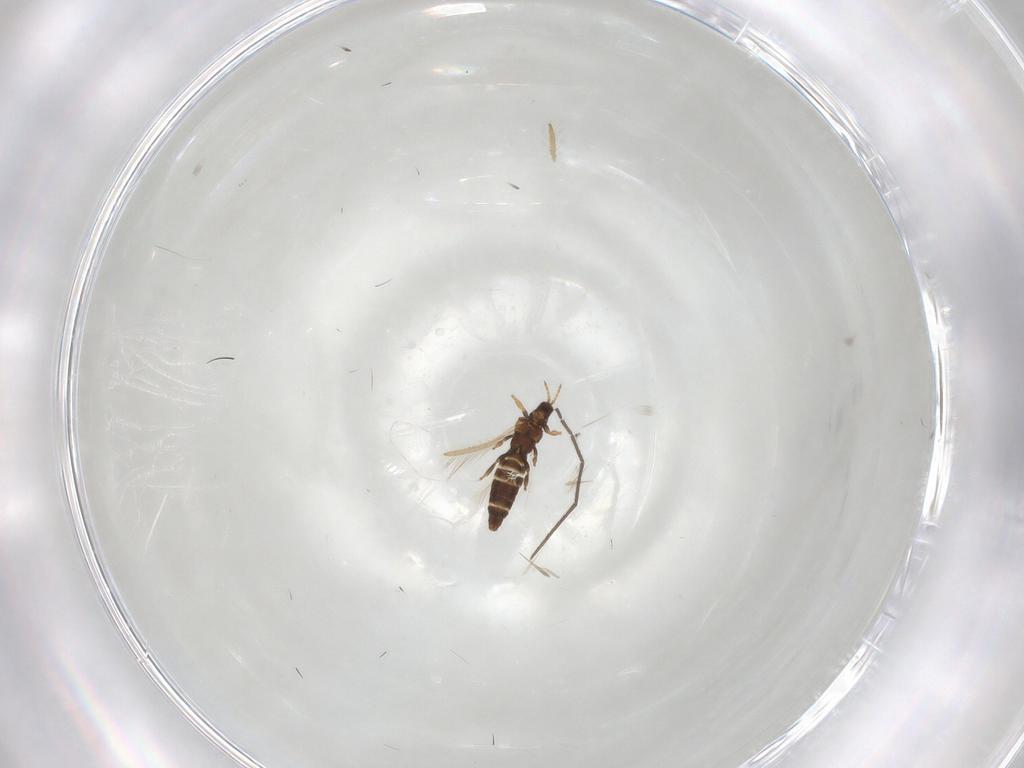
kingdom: Animalia
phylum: Arthropoda
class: Insecta
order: Thysanoptera
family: Thripidae
